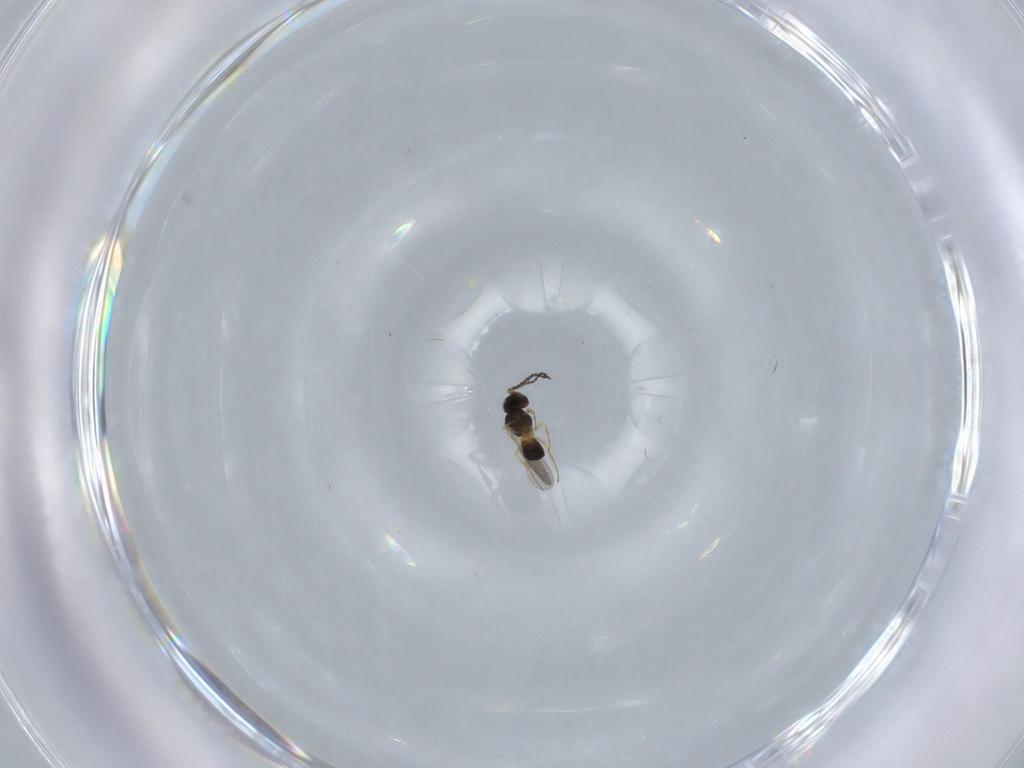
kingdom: Animalia
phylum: Arthropoda
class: Insecta
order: Hymenoptera
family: Scelionidae
